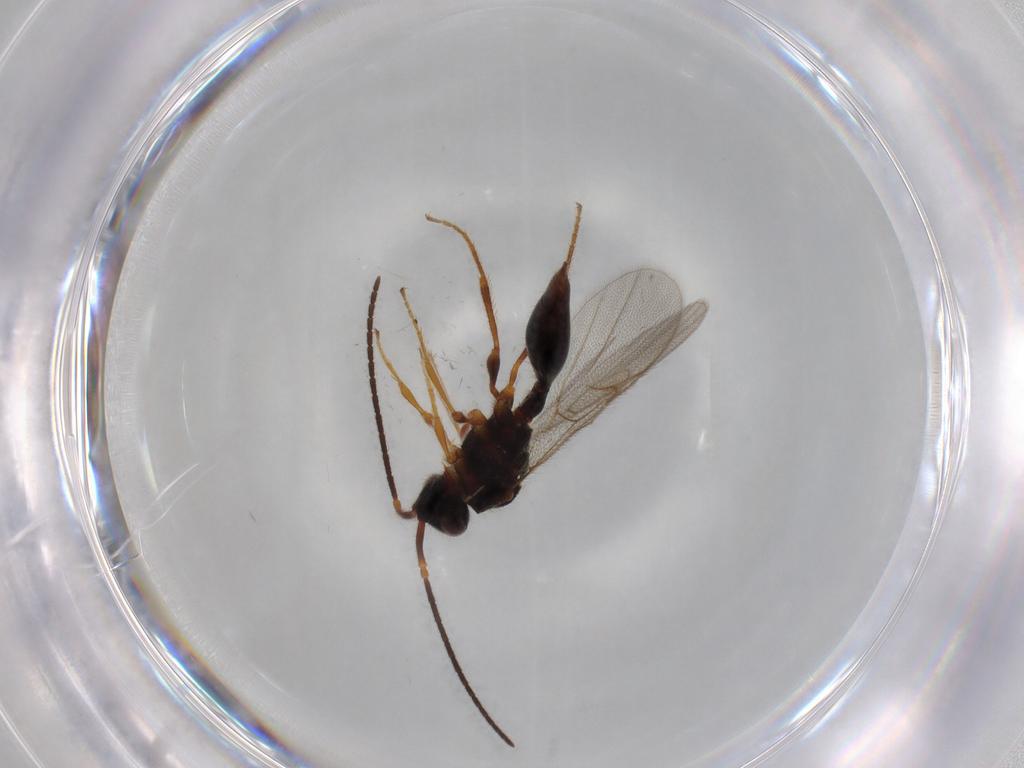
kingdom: Animalia
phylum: Arthropoda
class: Insecta
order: Hymenoptera
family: Diapriidae
